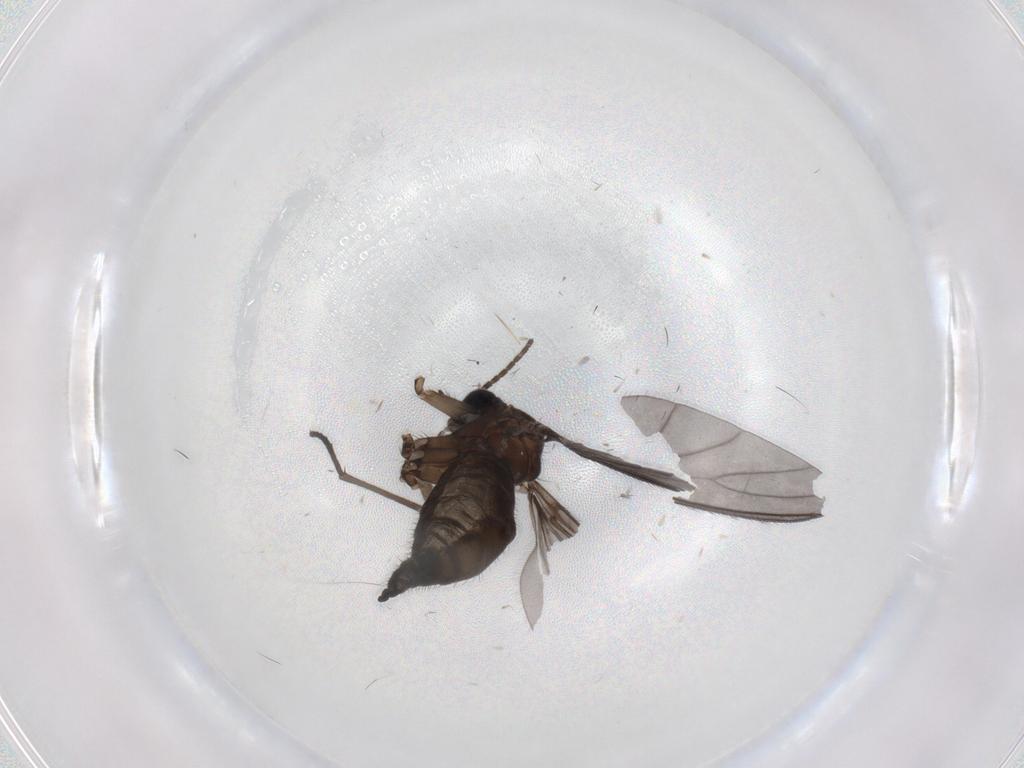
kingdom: Animalia
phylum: Arthropoda
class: Insecta
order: Diptera
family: Sciaridae
